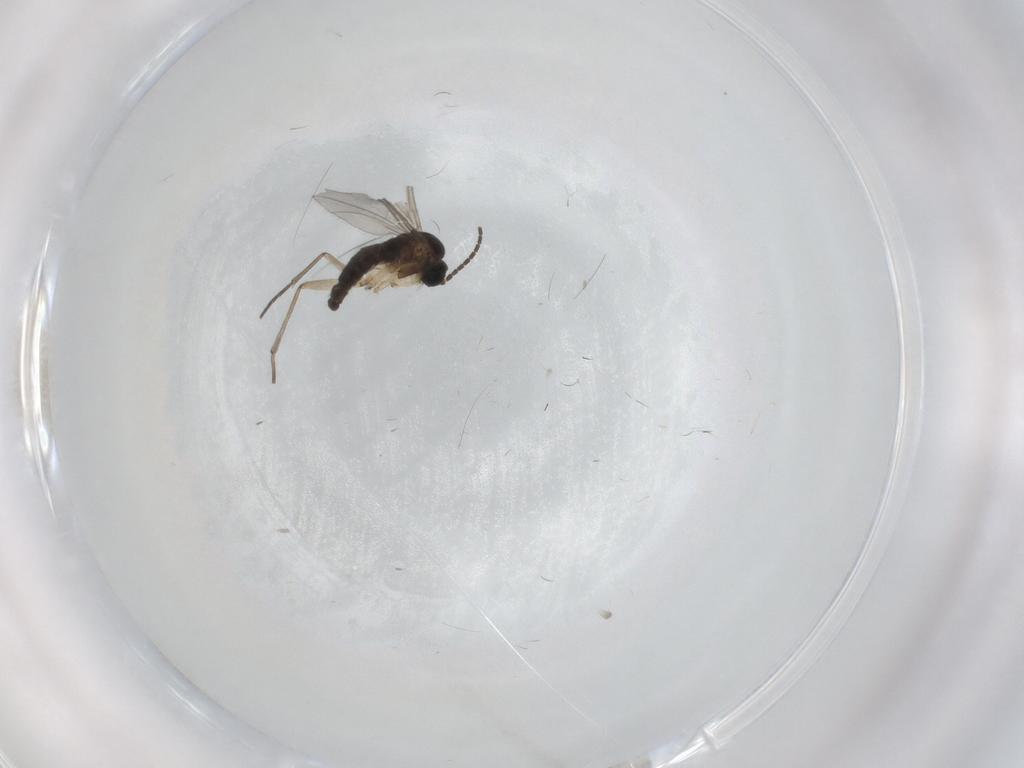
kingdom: Animalia
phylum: Arthropoda
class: Insecta
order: Diptera
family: Sciaridae
